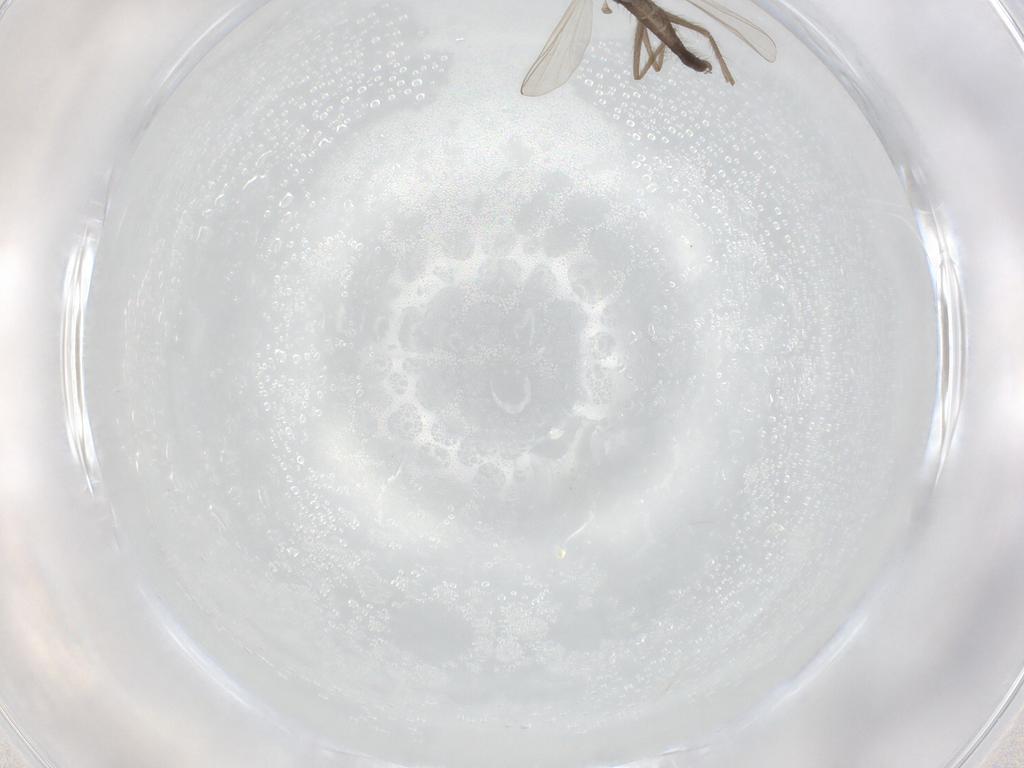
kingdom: Animalia
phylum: Arthropoda
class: Insecta
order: Diptera
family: Chironomidae
